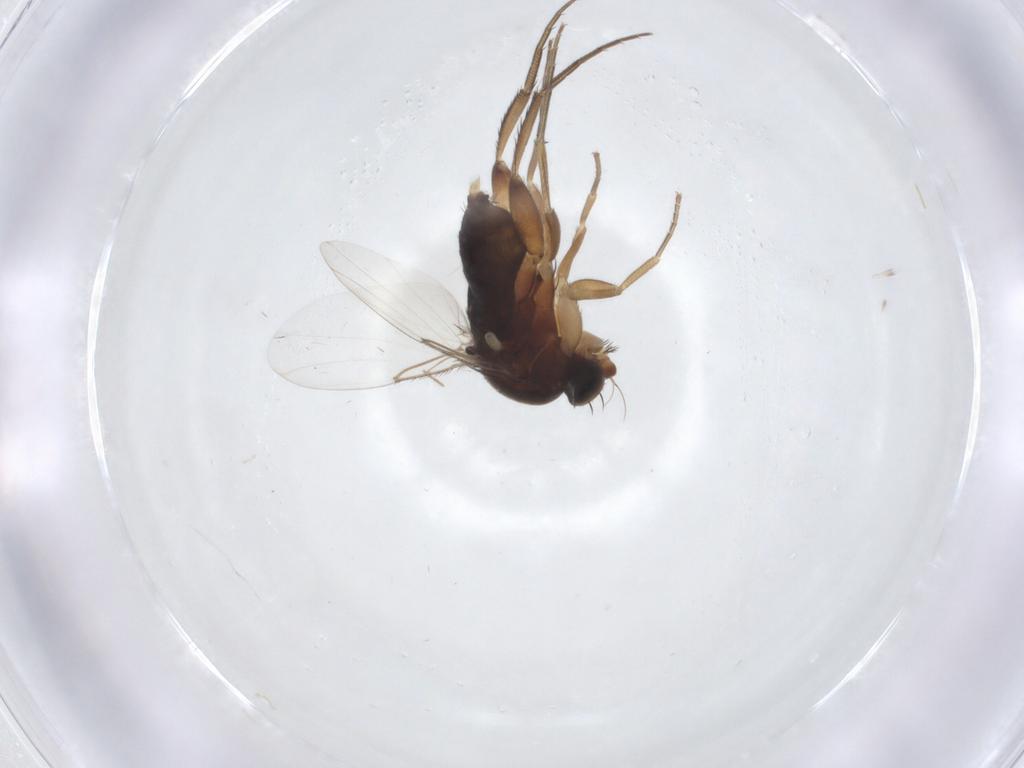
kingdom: Animalia
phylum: Arthropoda
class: Insecta
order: Diptera
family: Phoridae
